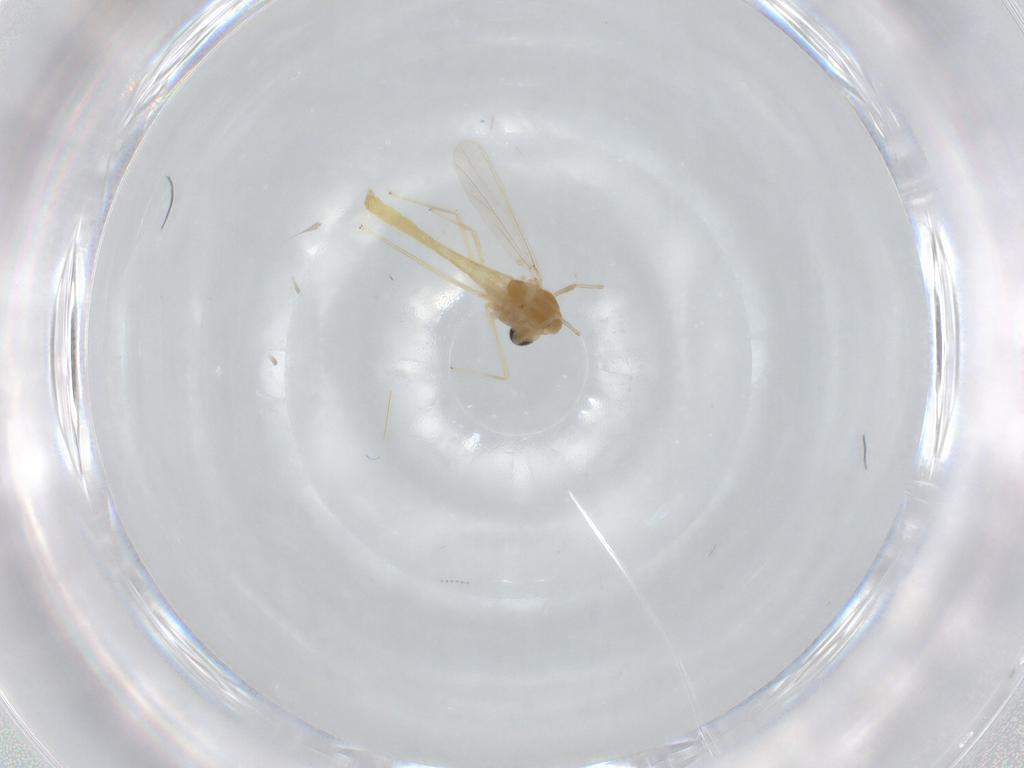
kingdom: Animalia
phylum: Arthropoda
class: Insecta
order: Diptera
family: Chironomidae
